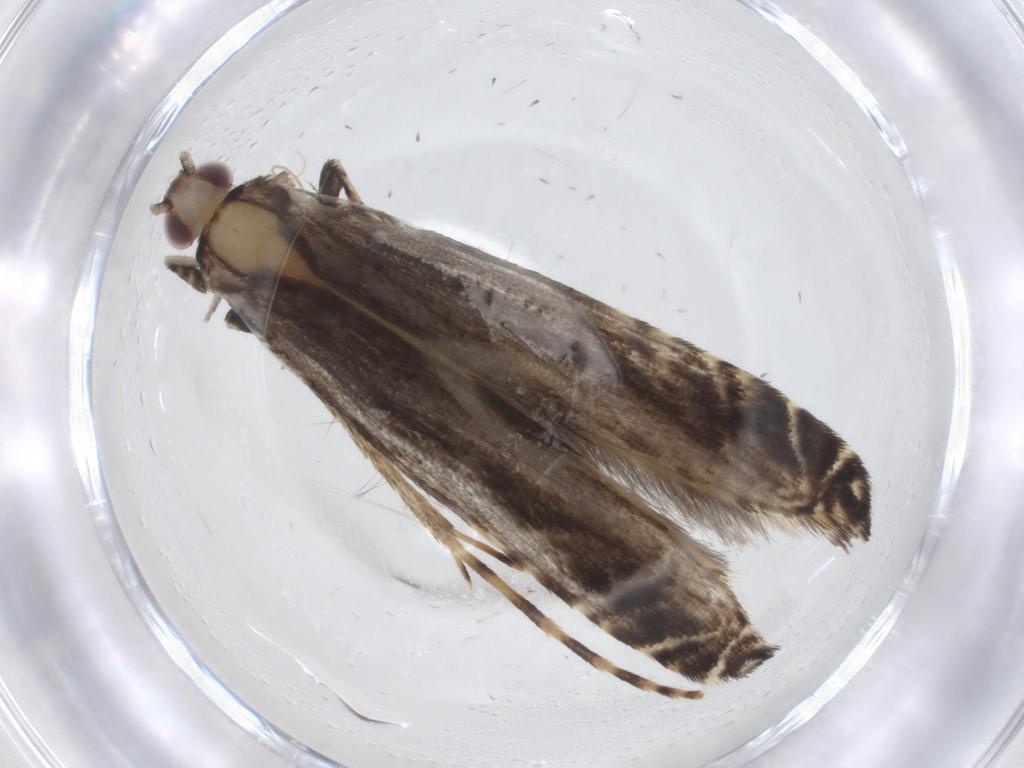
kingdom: Animalia
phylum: Arthropoda
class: Insecta
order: Lepidoptera
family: Gracillariidae
